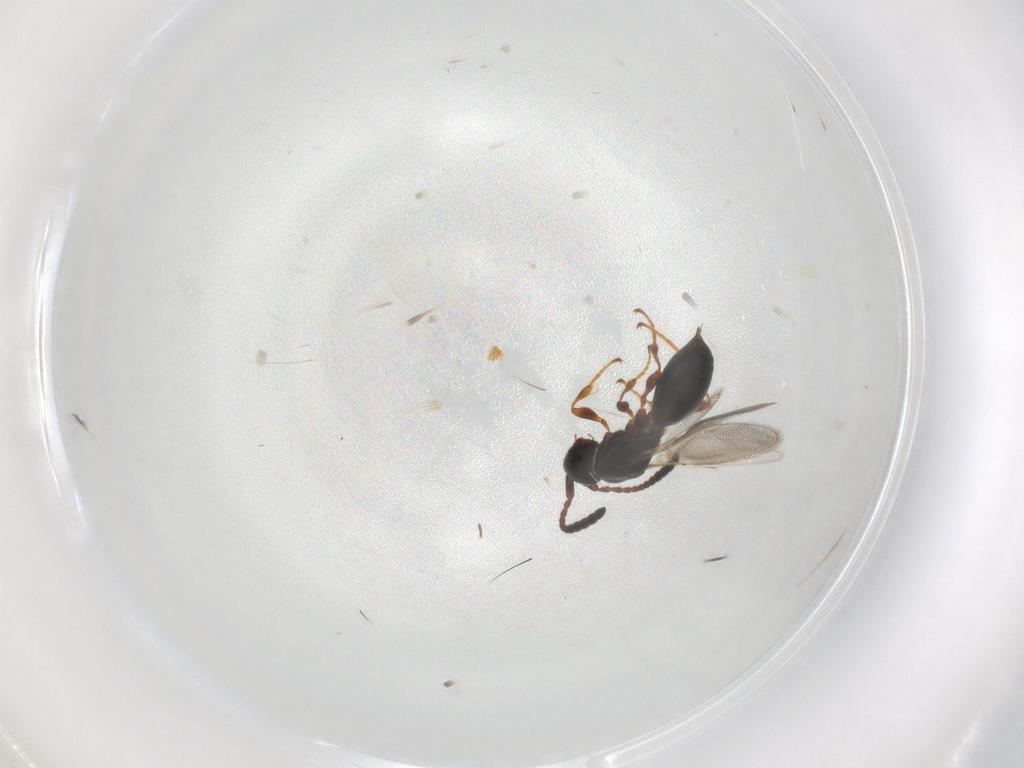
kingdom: Animalia
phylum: Arthropoda
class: Insecta
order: Hymenoptera
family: Diapriidae
